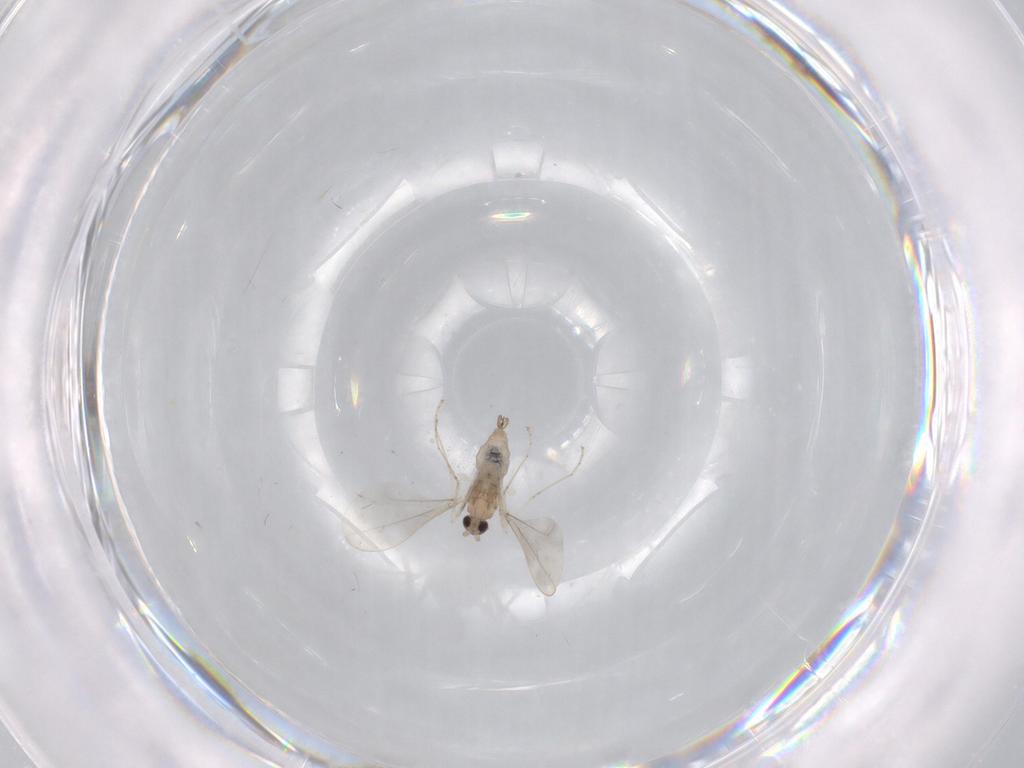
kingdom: Animalia
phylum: Arthropoda
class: Insecta
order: Diptera
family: Cecidomyiidae
